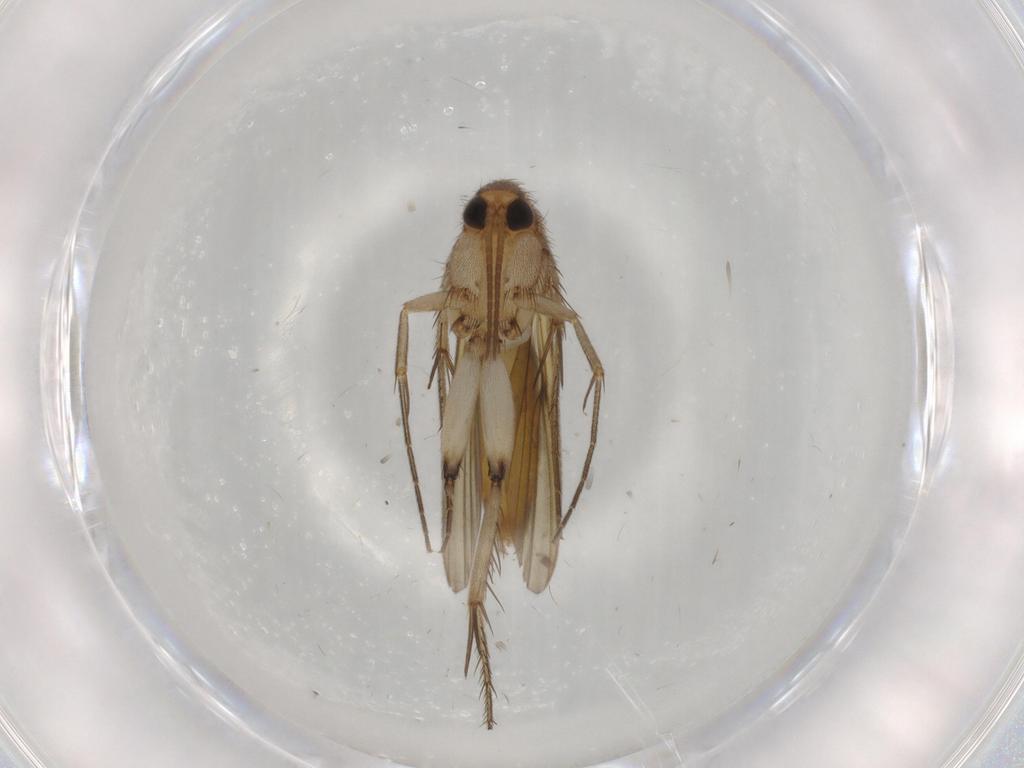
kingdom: Animalia
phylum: Arthropoda
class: Insecta
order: Diptera
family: Mycetophilidae
